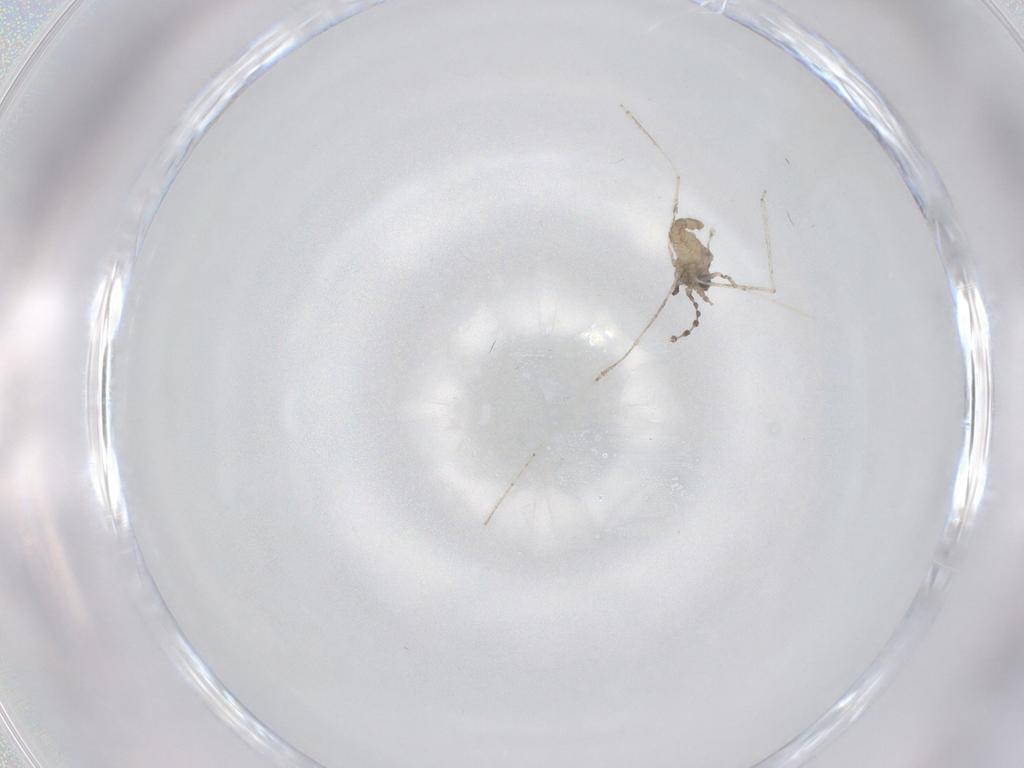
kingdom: Animalia
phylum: Arthropoda
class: Insecta
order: Diptera
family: Cecidomyiidae
